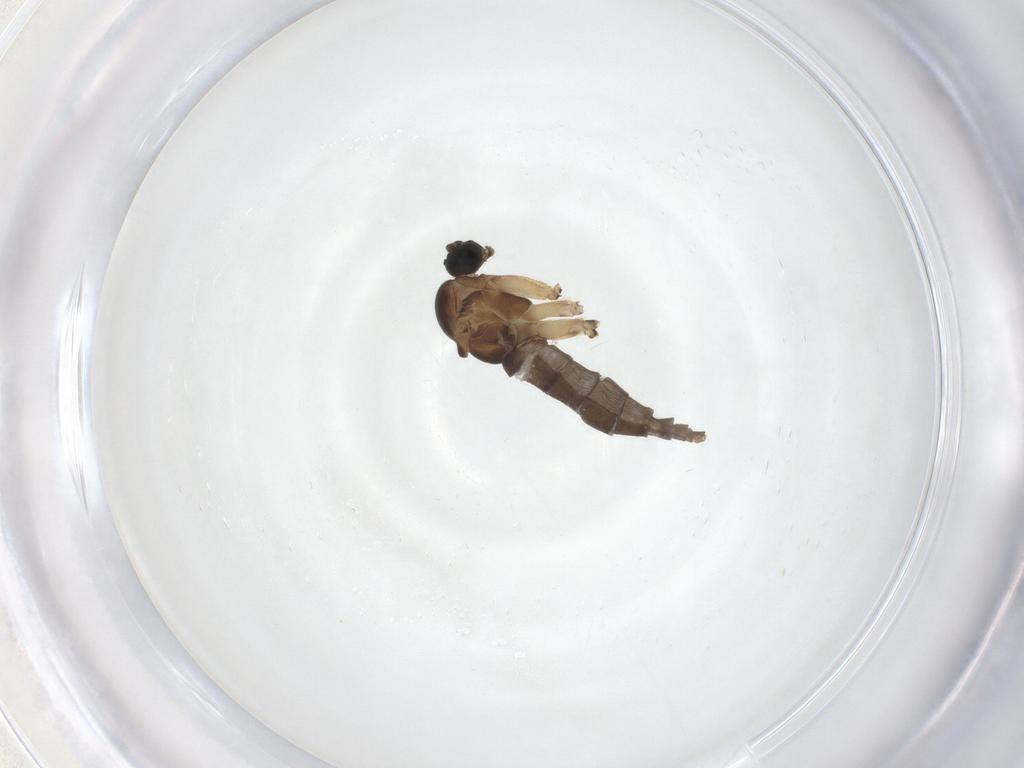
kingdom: Animalia
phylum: Arthropoda
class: Insecta
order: Diptera
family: Sciaridae
